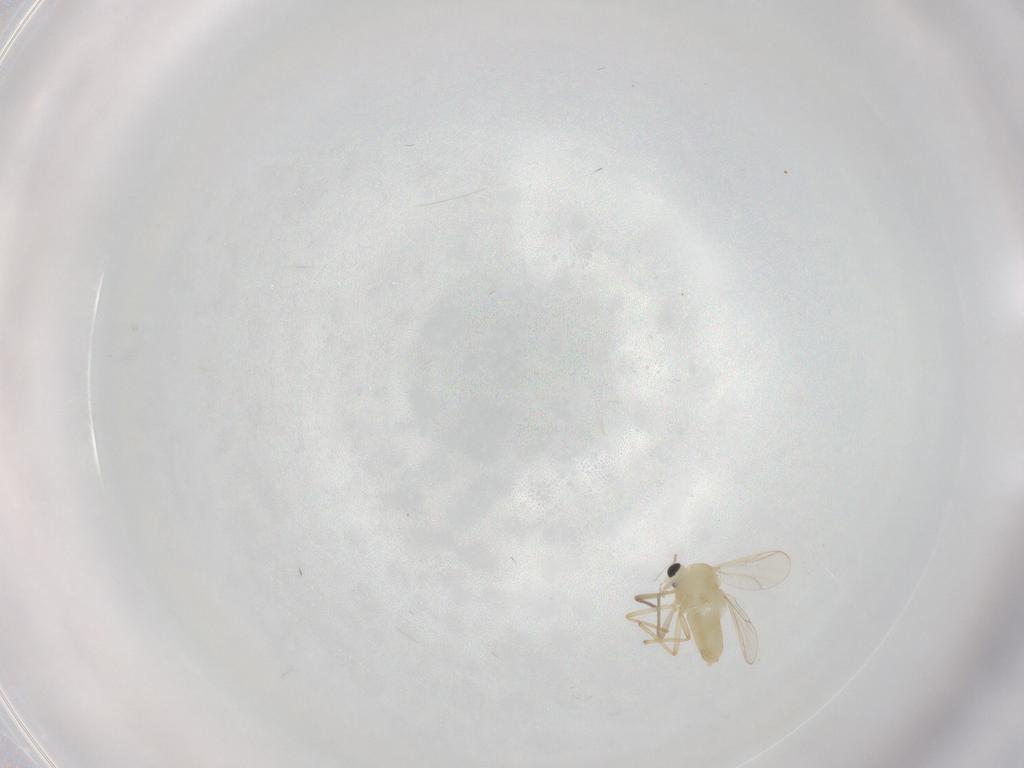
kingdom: Animalia
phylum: Arthropoda
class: Insecta
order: Diptera
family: Chironomidae
